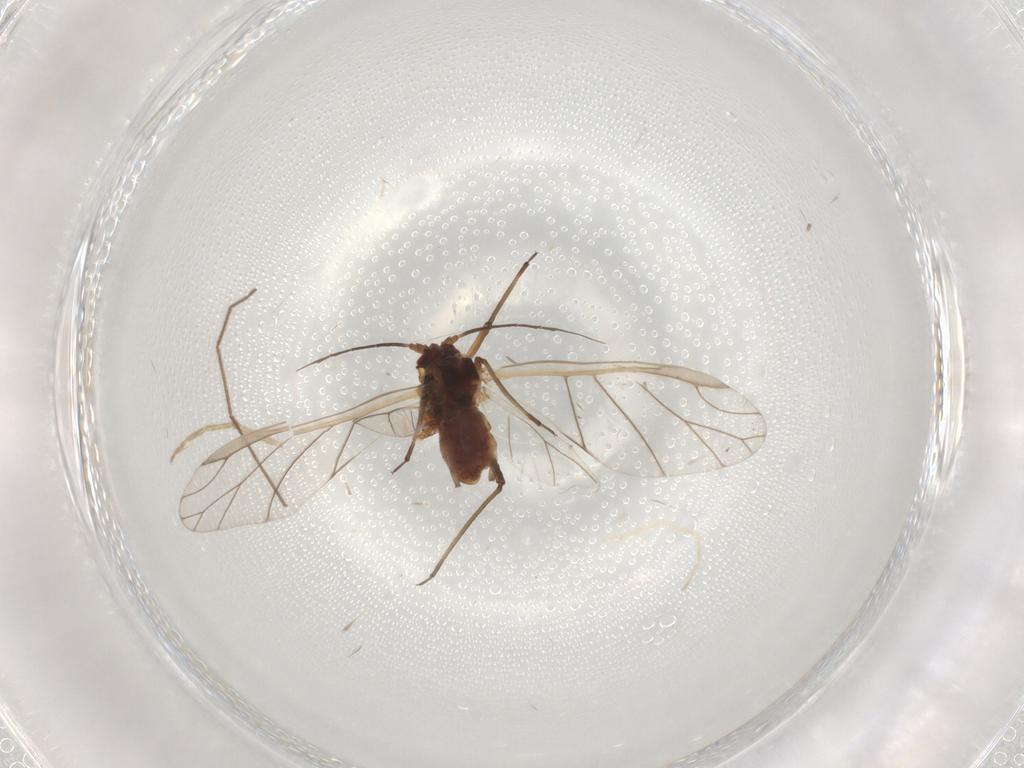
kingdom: Animalia
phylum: Arthropoda
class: Insecta
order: Hemiptera
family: Aphididae
